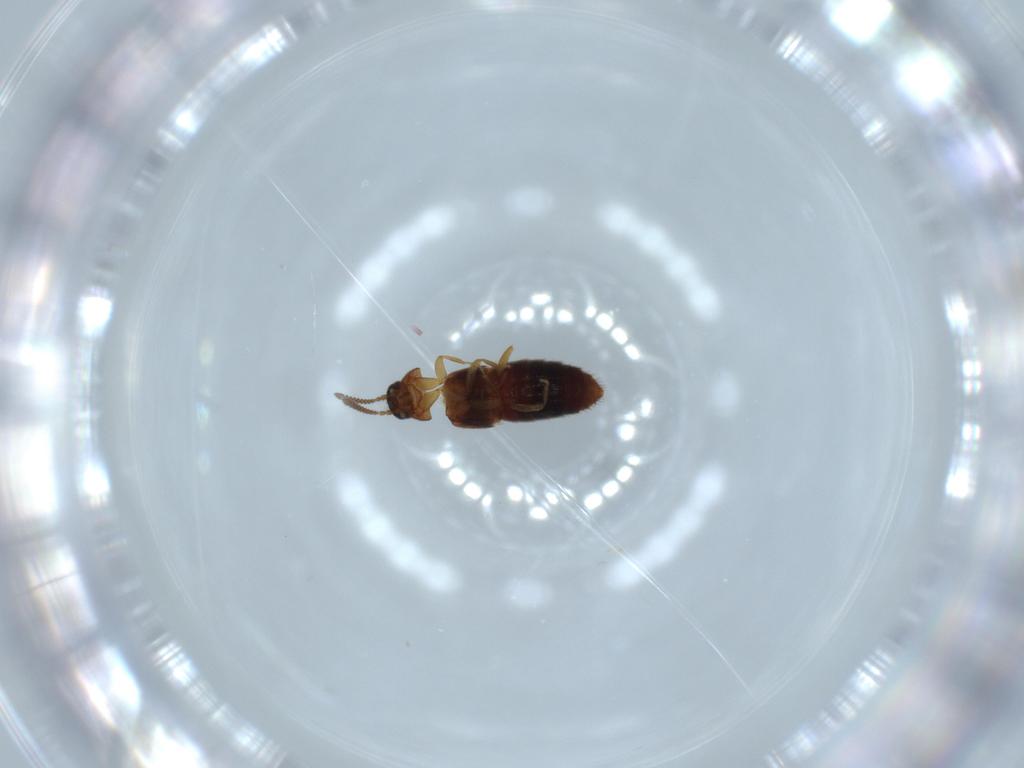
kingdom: Animalia
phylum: Arthropoda
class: Insecta
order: Coleoptera
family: Staphylinidae
